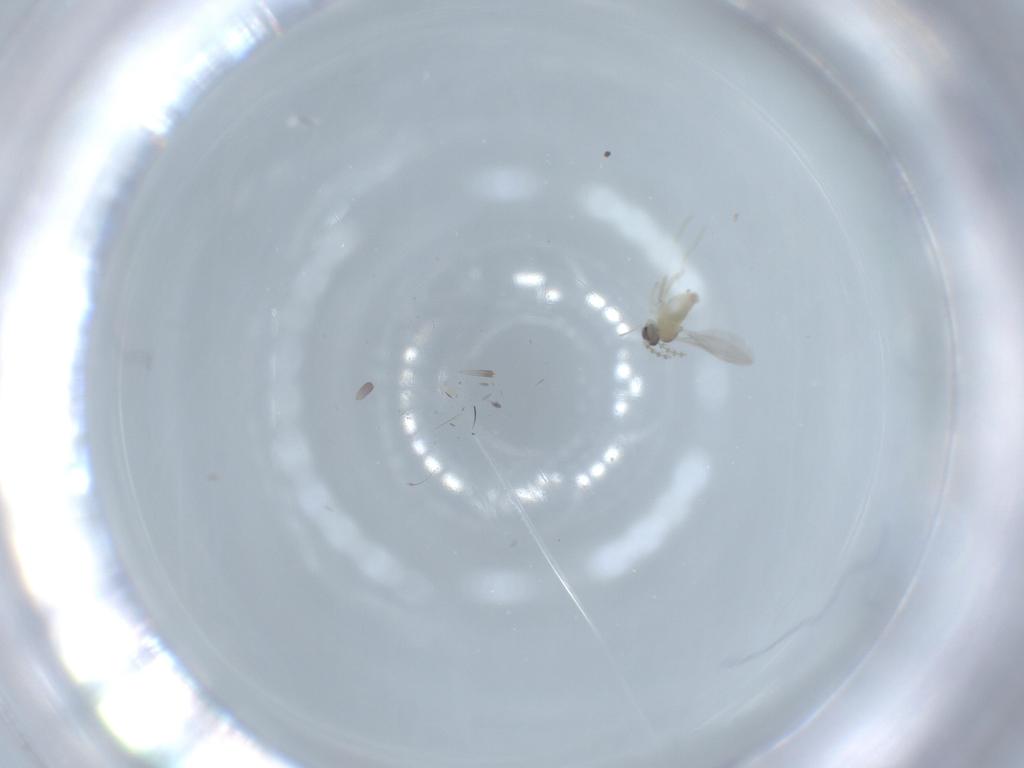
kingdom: Animalia
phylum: Arthropoda
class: Insecta
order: Diptera
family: Cecidomyiidae
